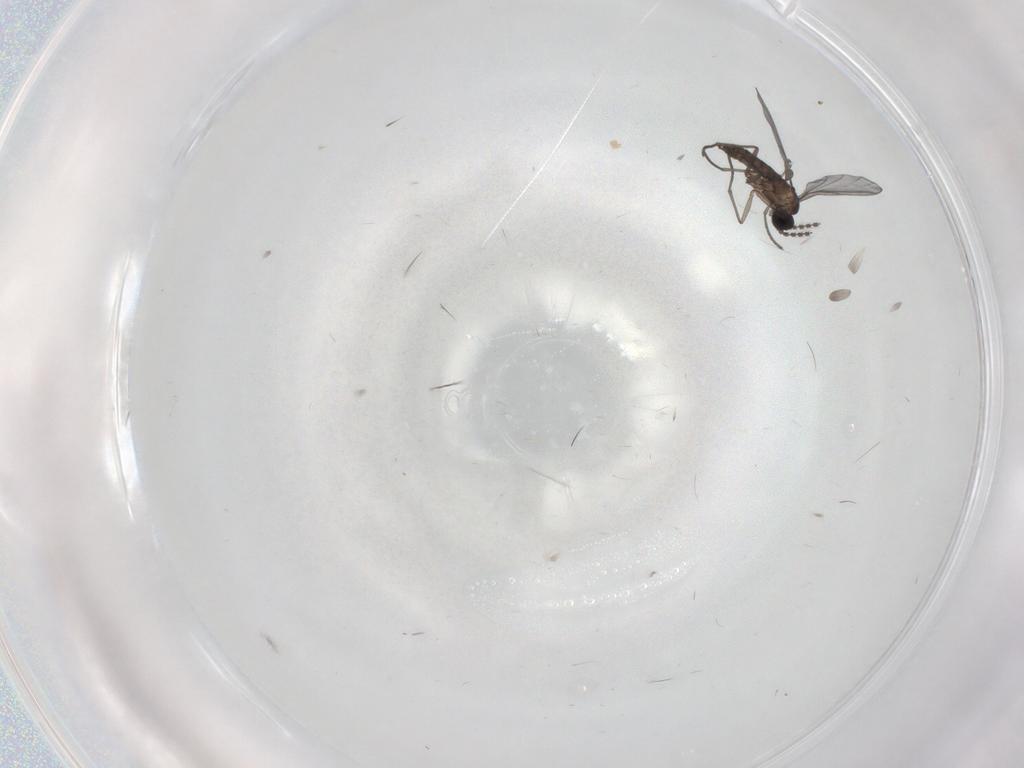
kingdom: Animalia
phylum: Arthropoda
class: Insecta
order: Diptera
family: Cecidomyiidae
